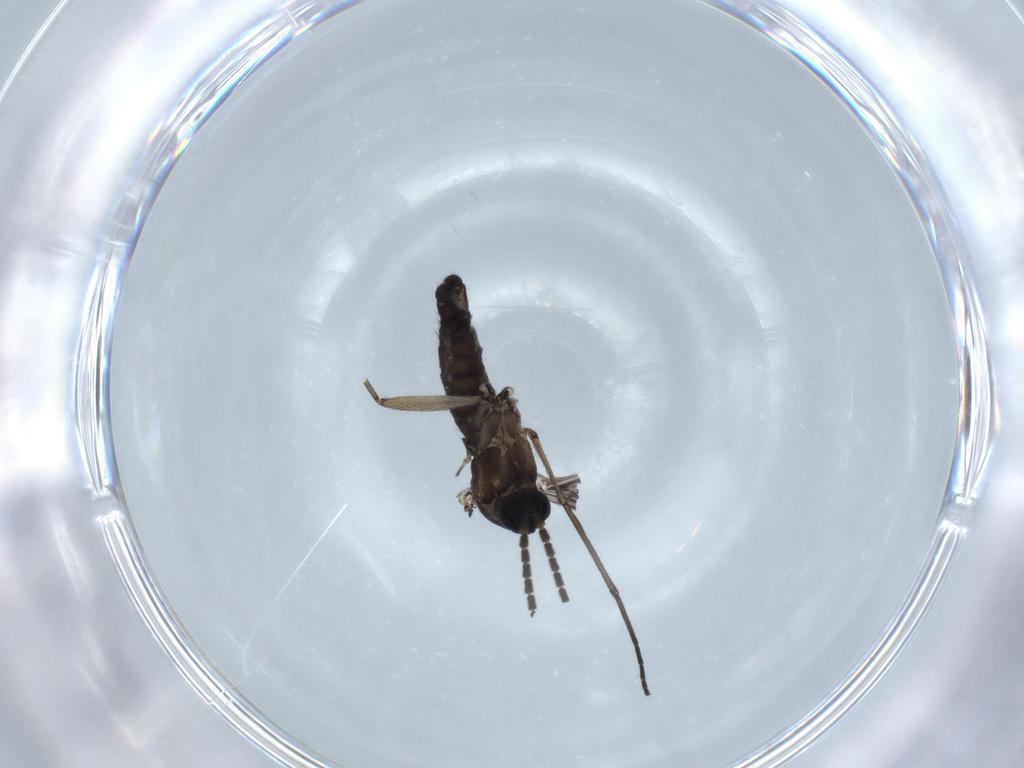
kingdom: Animalia
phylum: Arthropoda
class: Insecta
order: Diptera
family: Sciaridae
